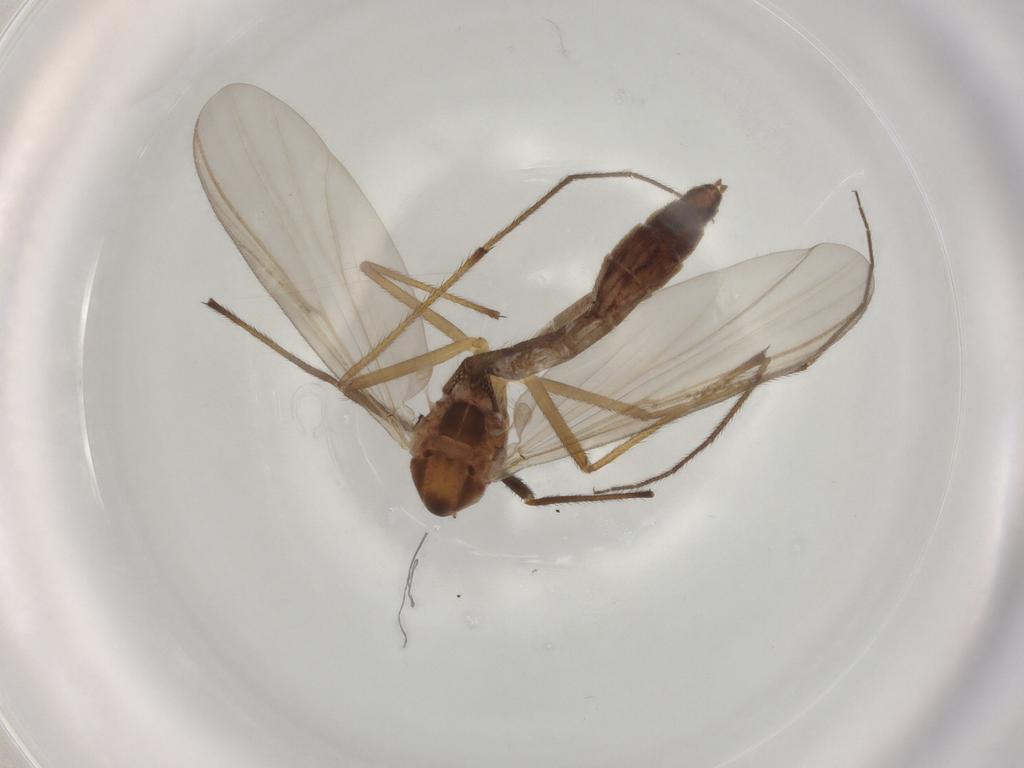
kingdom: Animalia
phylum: Arthropoda
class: Insecta
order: Diptera
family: Chironomidae
